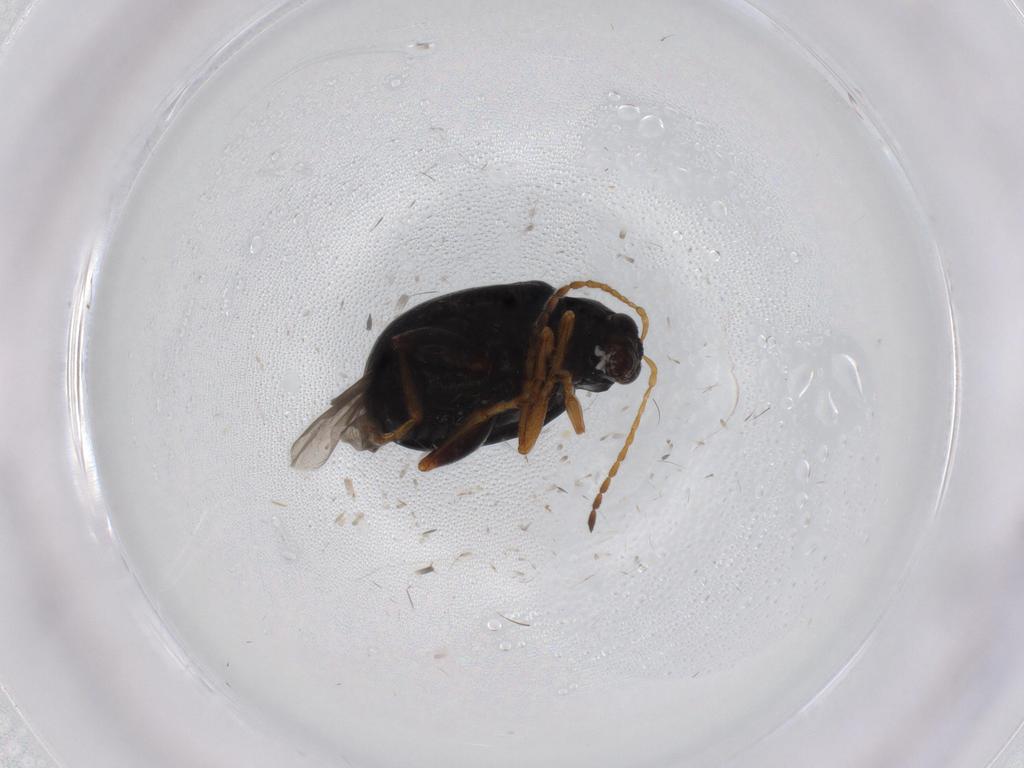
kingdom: Animalia
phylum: Arthropoda
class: Insecta
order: Coleoptera
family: Chrysomelidae
